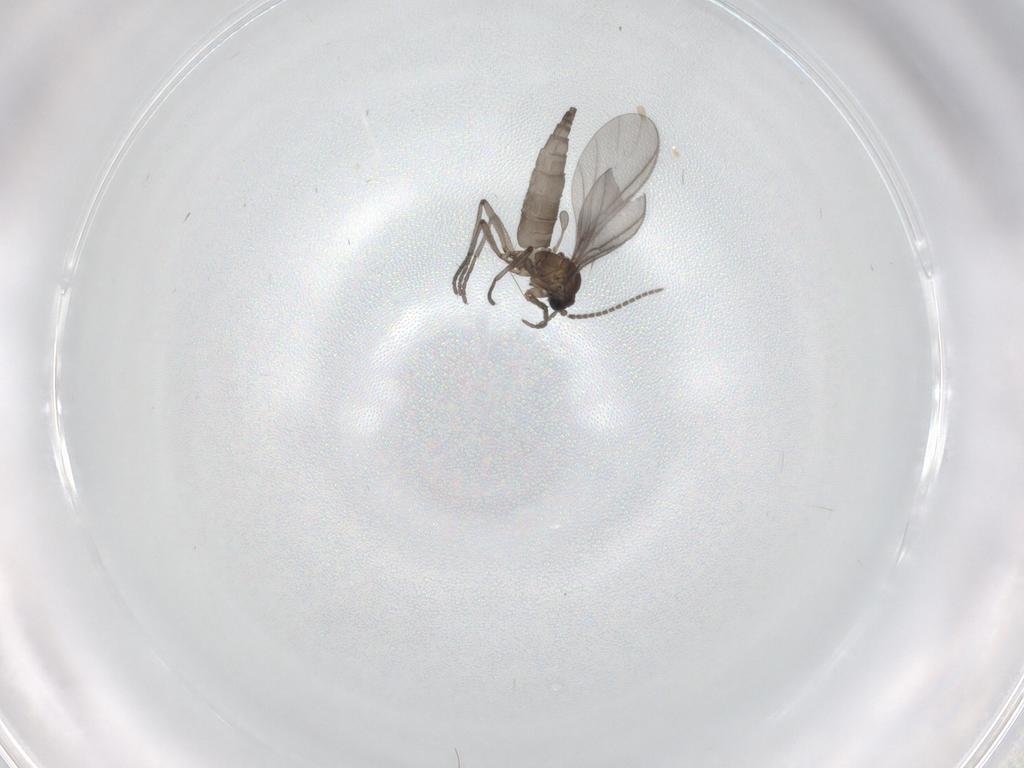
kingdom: Animalia
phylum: Arthropoda
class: Insecta
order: Diptera
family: Sciaridae
